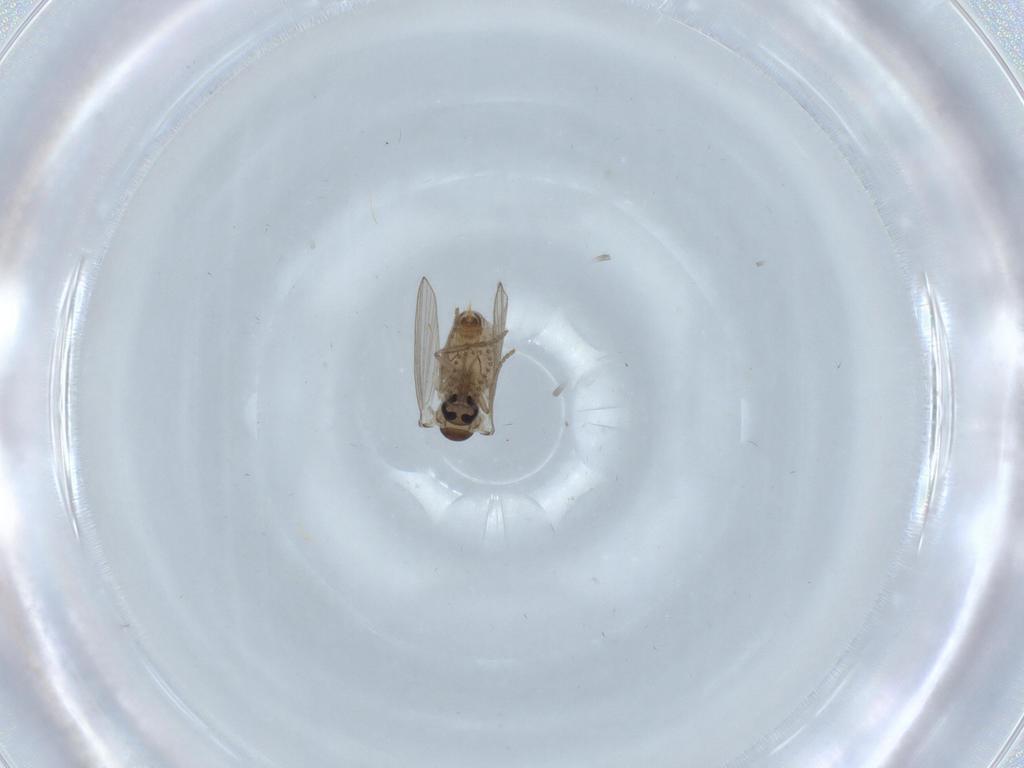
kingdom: Animalia
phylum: Arthropoda
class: Insecta
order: Diptera
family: Psychodidae
